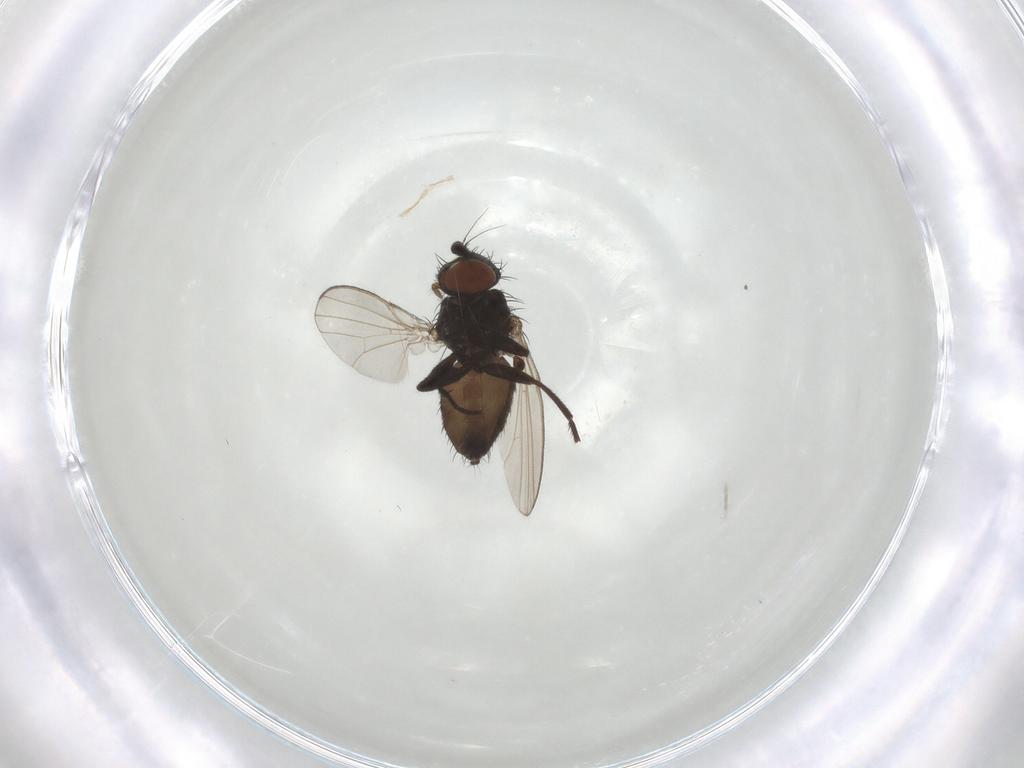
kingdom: Animalia
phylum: Arthropoda
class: Insecta
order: Diptera
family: Milichiidae
